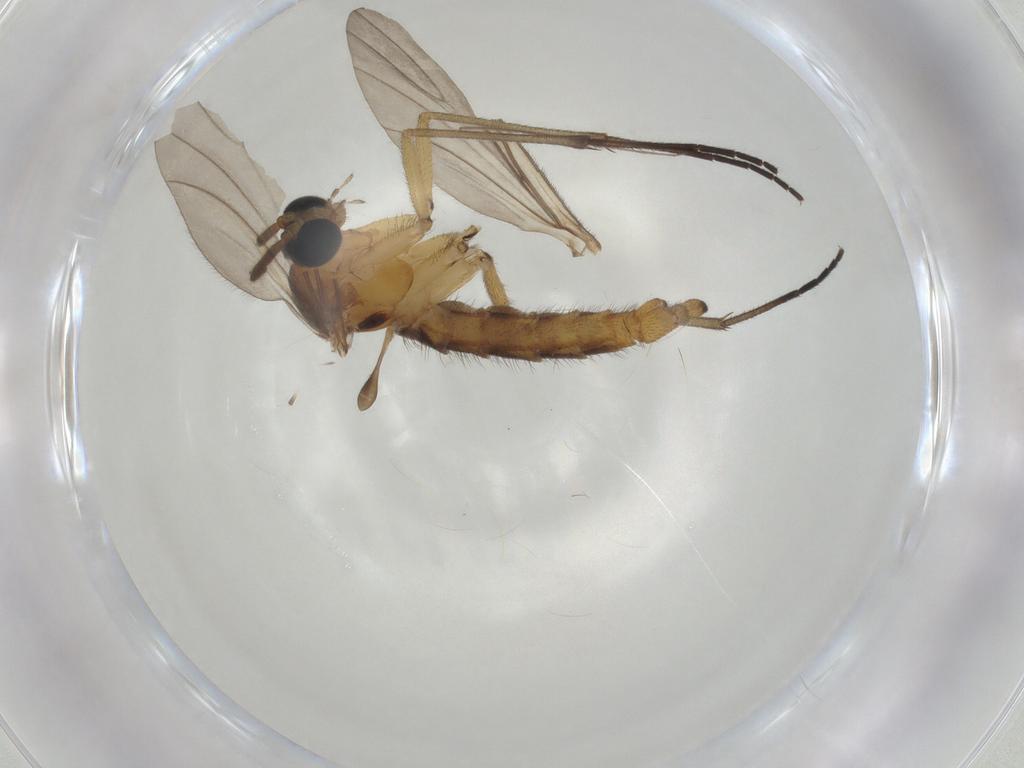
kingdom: Animalia
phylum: Arthropoda
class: Insecta
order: Diptera
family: Sciaridae
